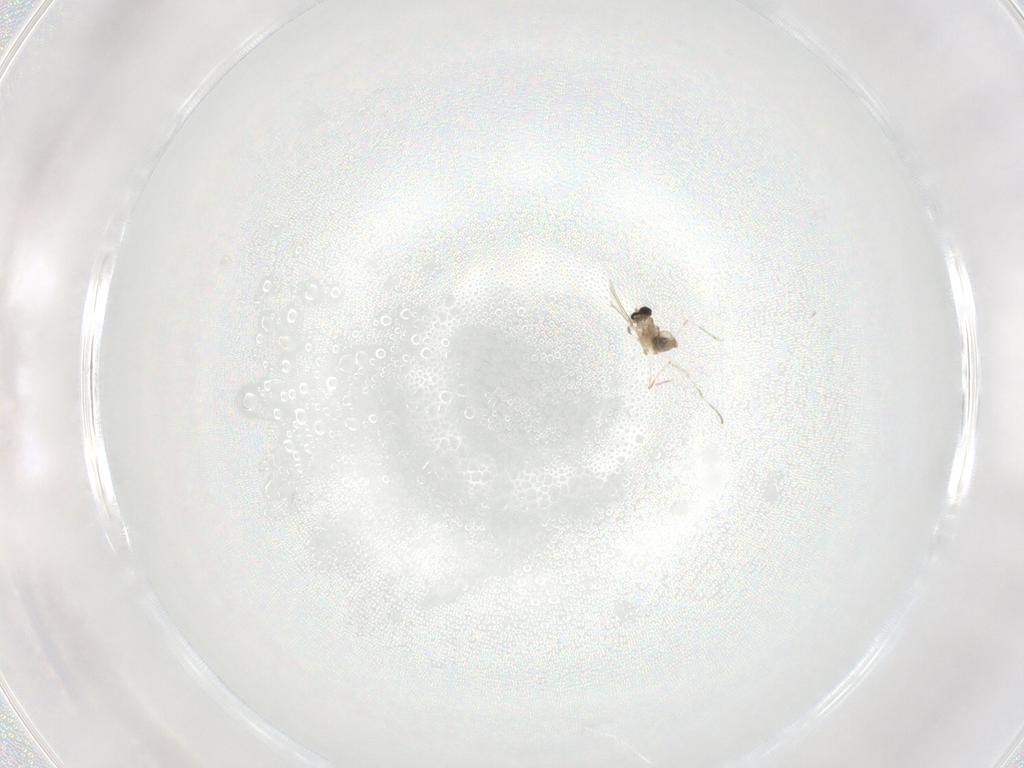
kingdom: Animalia
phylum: Arthropoda
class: Insecta
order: Diptera
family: Cecidomyiidae
